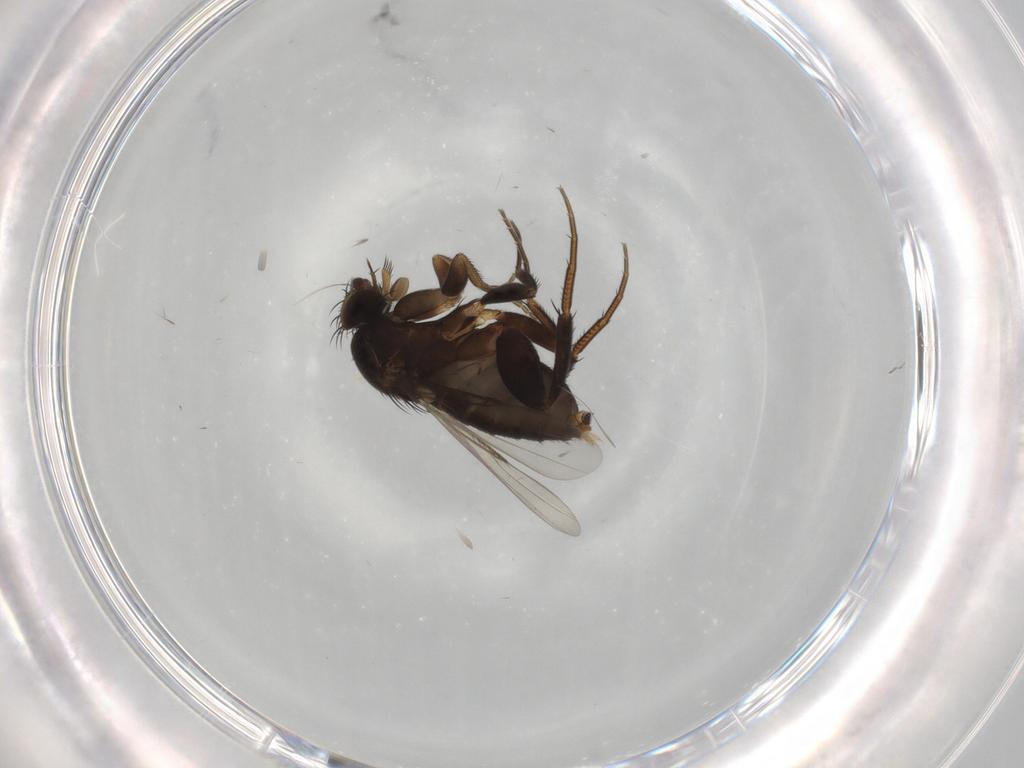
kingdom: Animalia
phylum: Arthropoda
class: Insecta
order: Diptera
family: Phoridae
